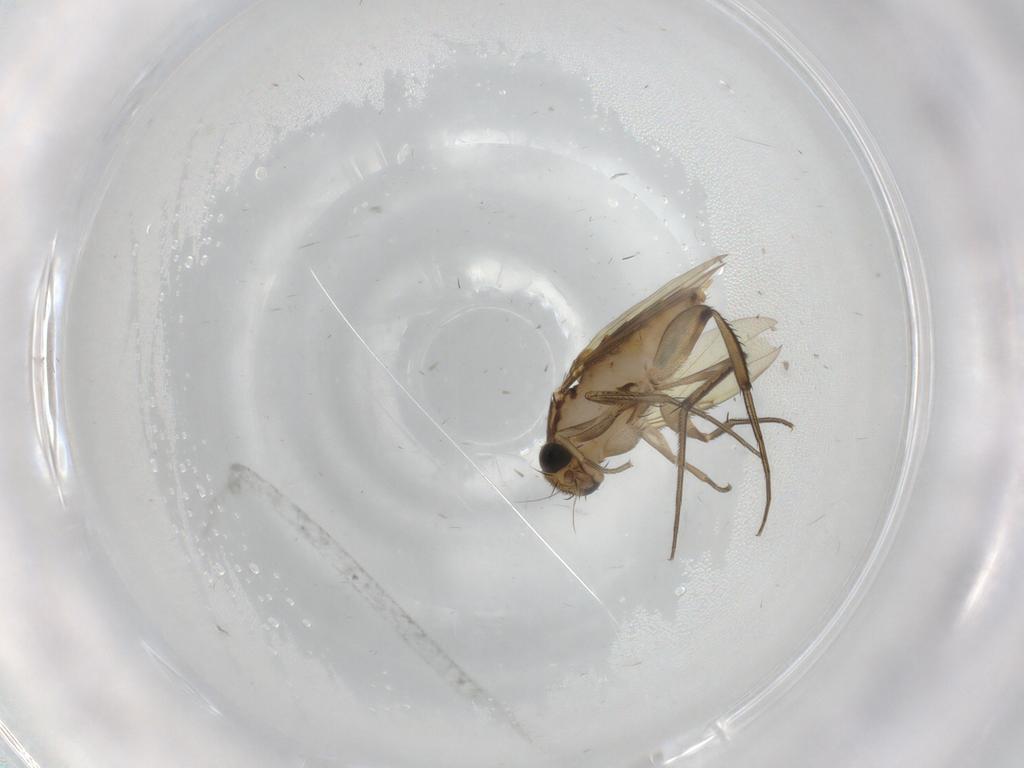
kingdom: Animalia
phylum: Arthropoda
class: Insecta
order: Diptera
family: Phoridae
